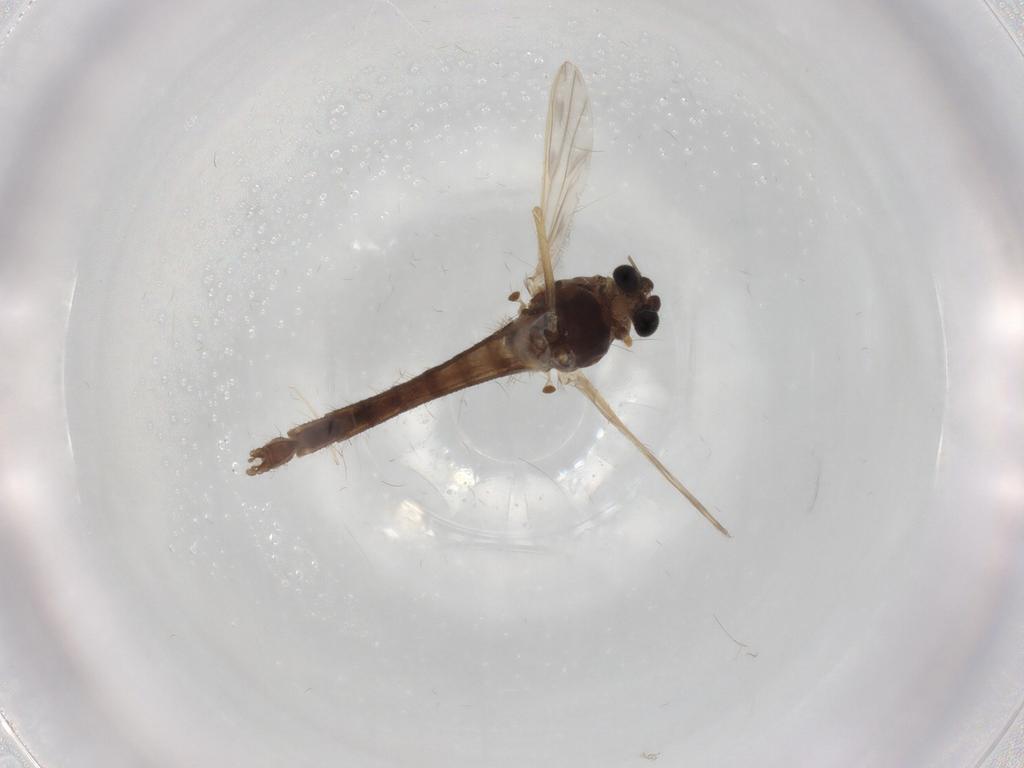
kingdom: Animalia
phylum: Arthropoda
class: Insecta
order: Diptera
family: Chironomidae
